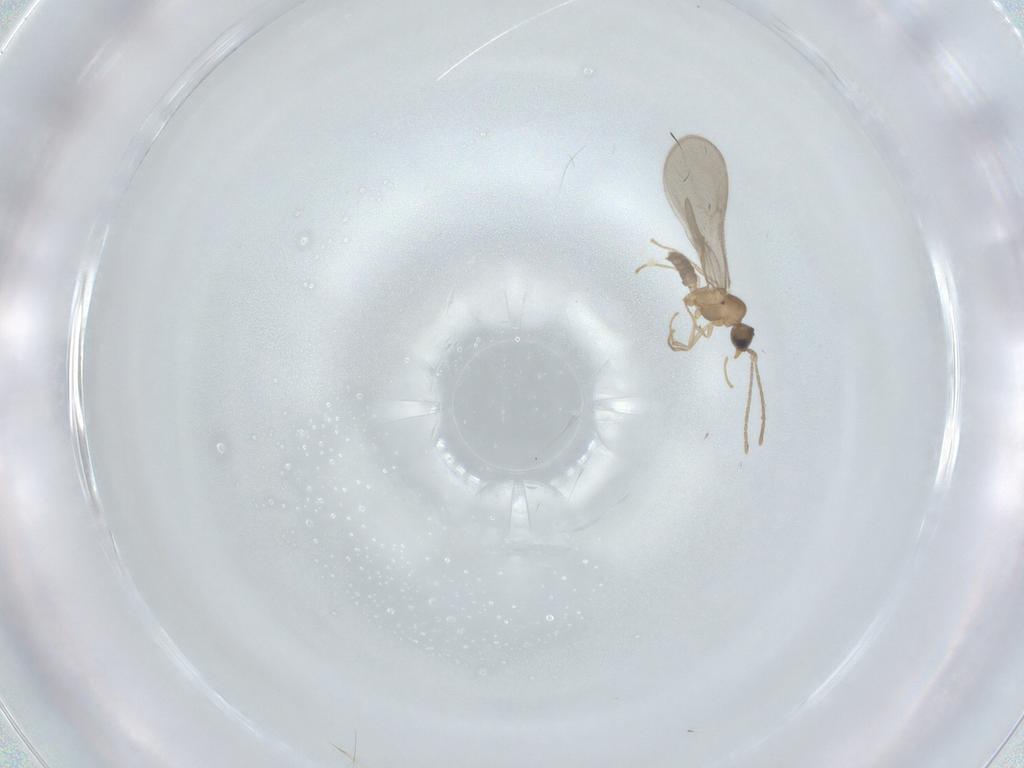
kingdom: Animalia
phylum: Arthropoda
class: Insecta
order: Hymenoptera
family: Formicidae
